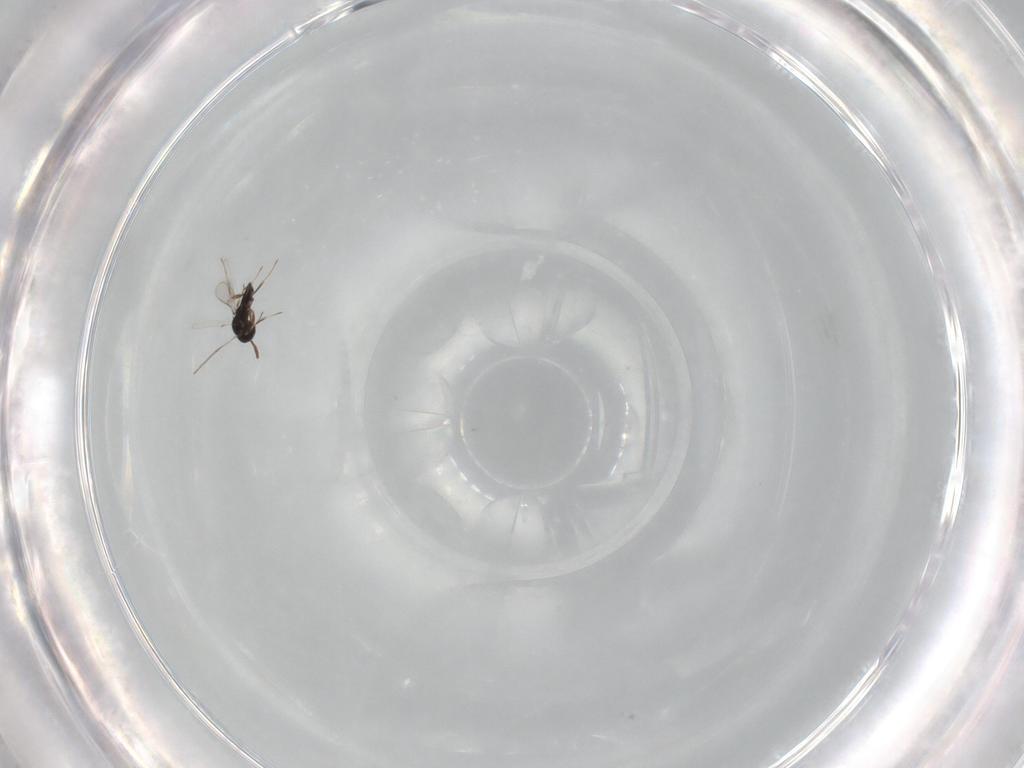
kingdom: Animalia
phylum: Arthropoda
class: Insecta
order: Hymenoptera
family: Scelionidae
